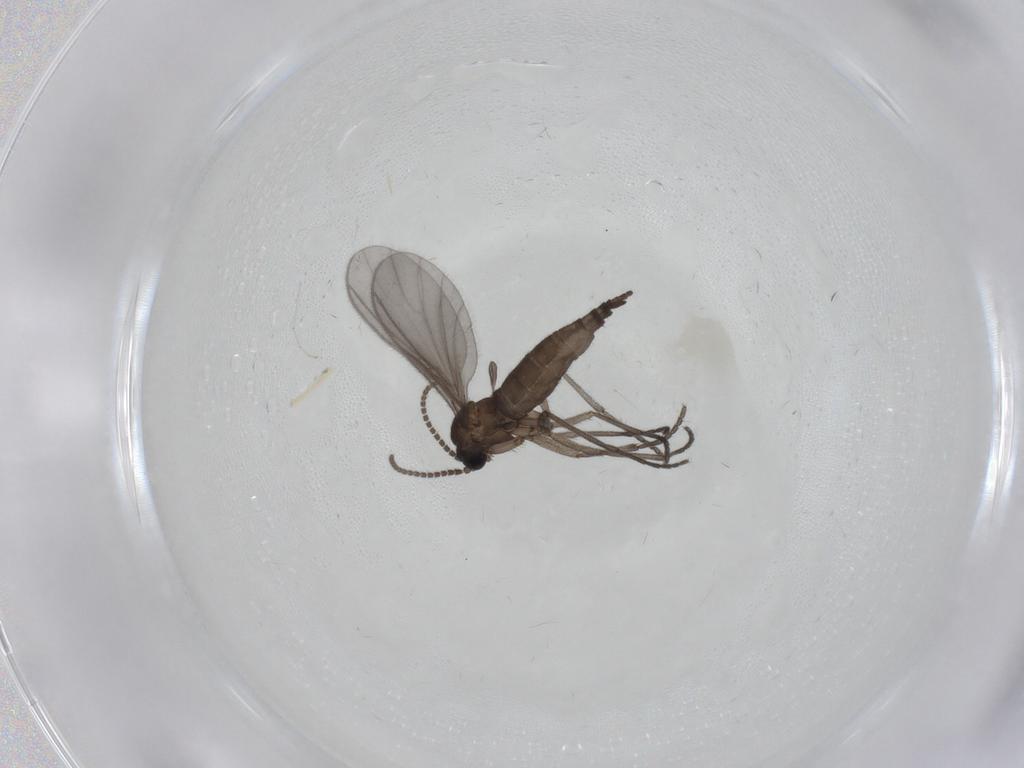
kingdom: Animalia
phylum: Arthropoda
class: Insecta
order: Diptera
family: Sciaridae
